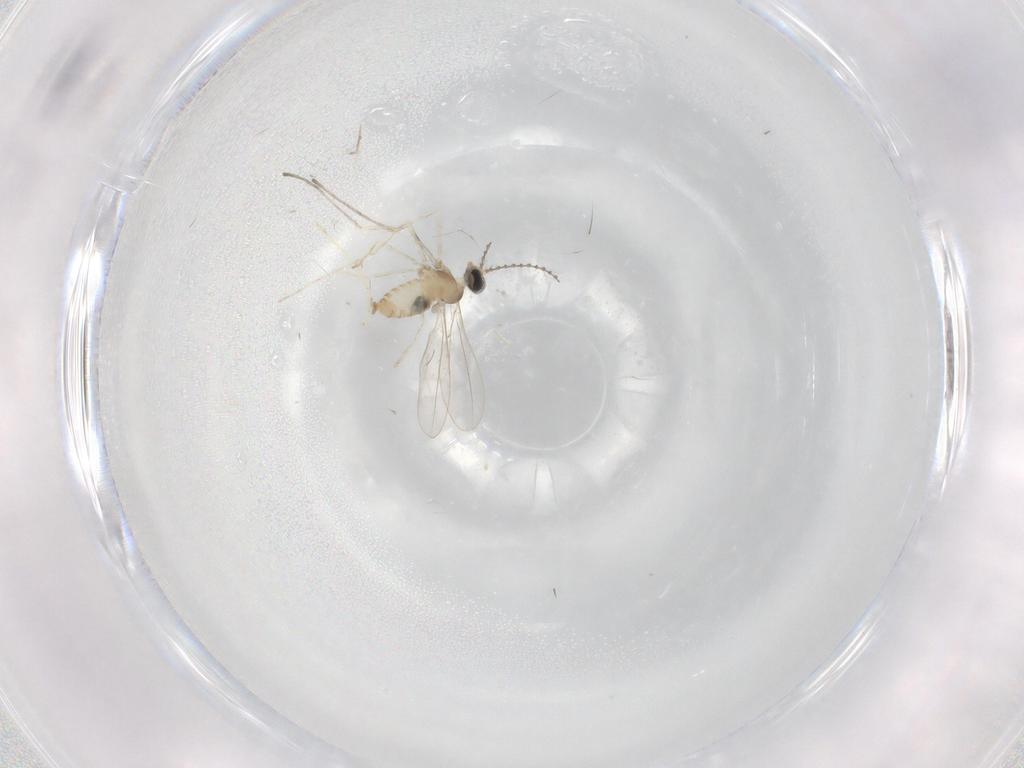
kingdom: Animalia
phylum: Arthropoda
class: Insecta
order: Diptera
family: Cecidomyiidae
